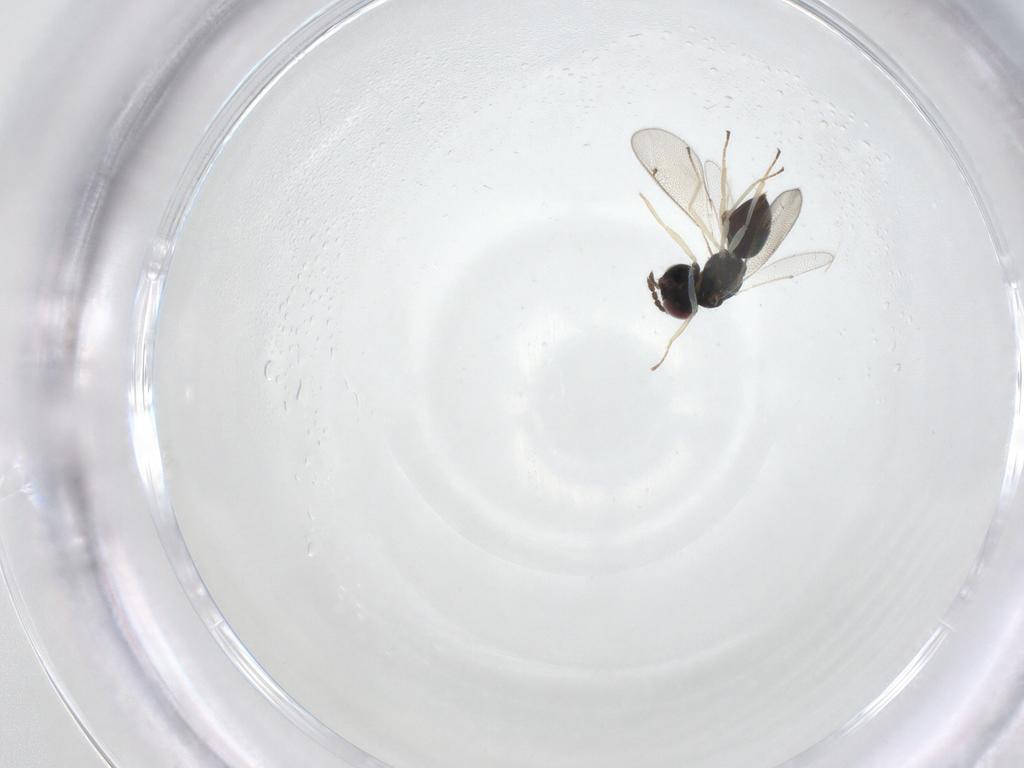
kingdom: Animalia
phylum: Arthropoda
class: Insecta
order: Hymenoptera
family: Eulophidae
